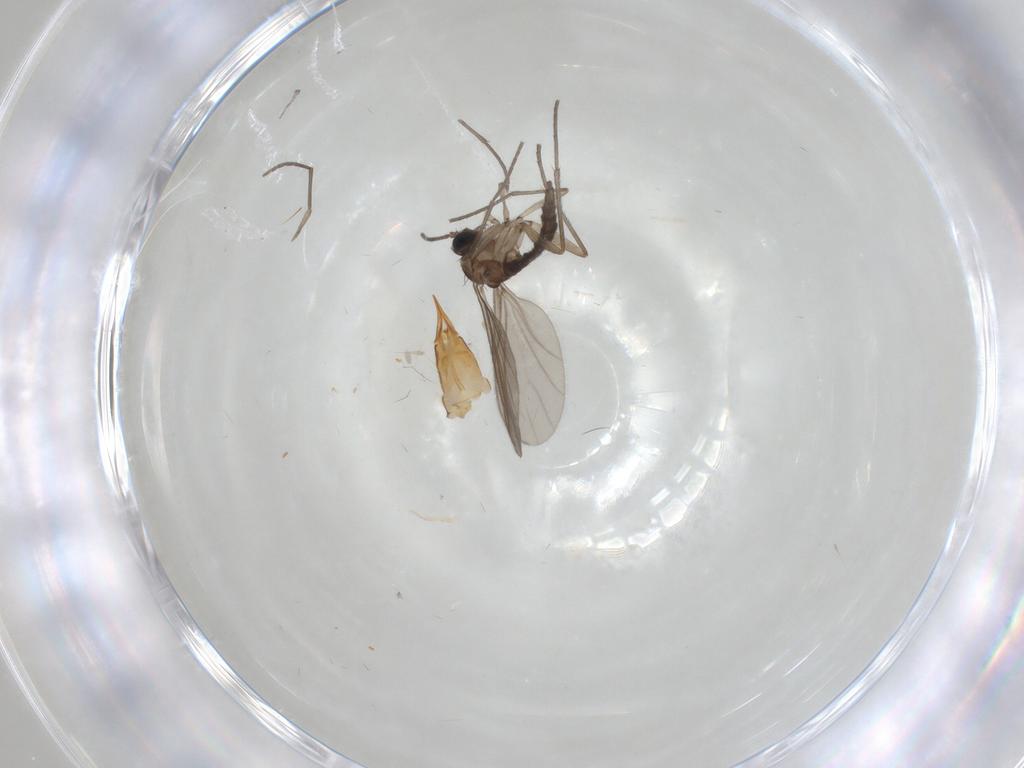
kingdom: Animalia
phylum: Arthropoda
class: Insecta
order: Diptera
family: Sciaridae
